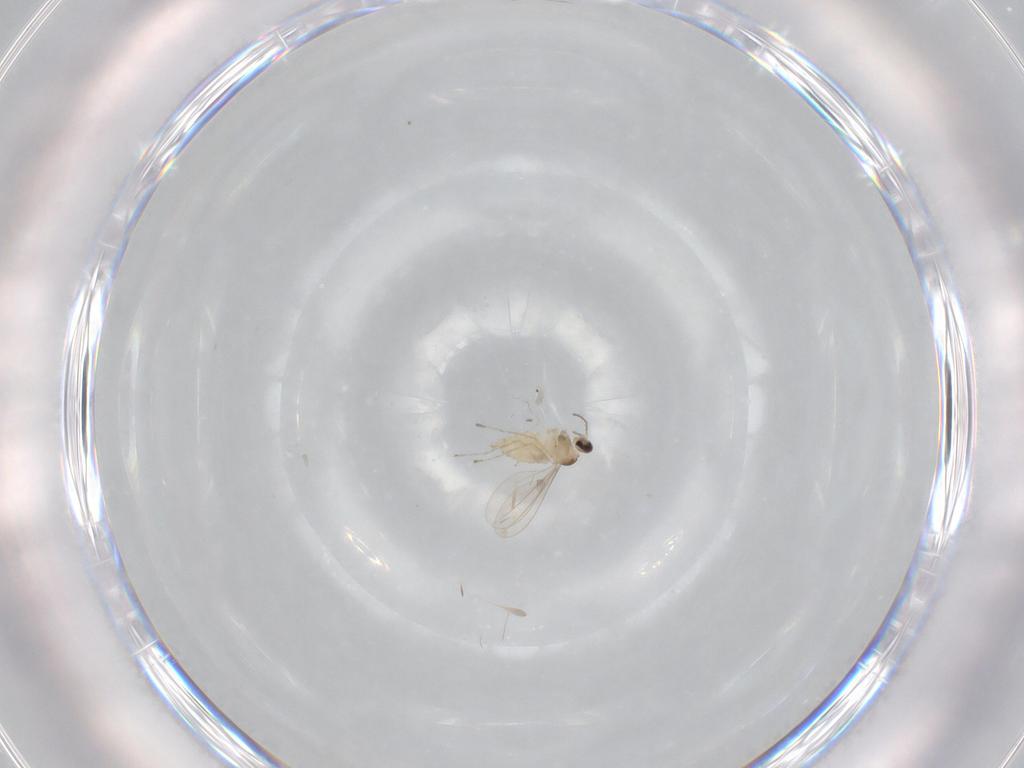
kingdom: Animalia
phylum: Arthropoda
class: Insecta
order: Diptera
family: Cecidomyiidae
